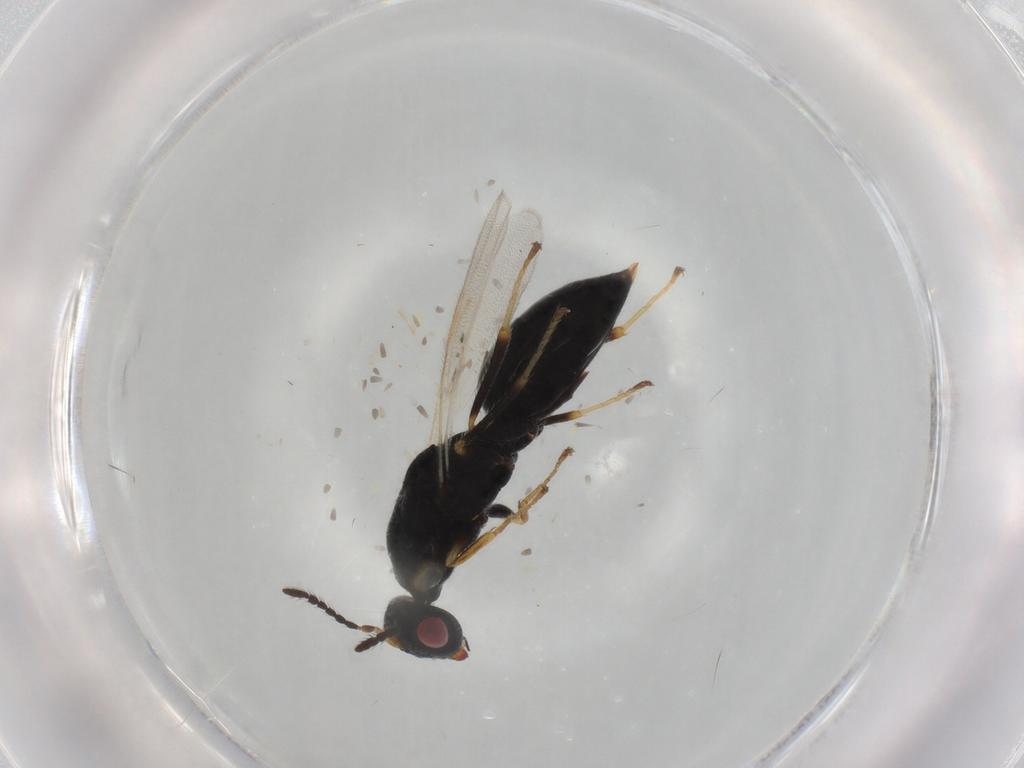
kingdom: Animalia
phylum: Arthropoda
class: Insecta
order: Hymenoptera
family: Eurytomidae
